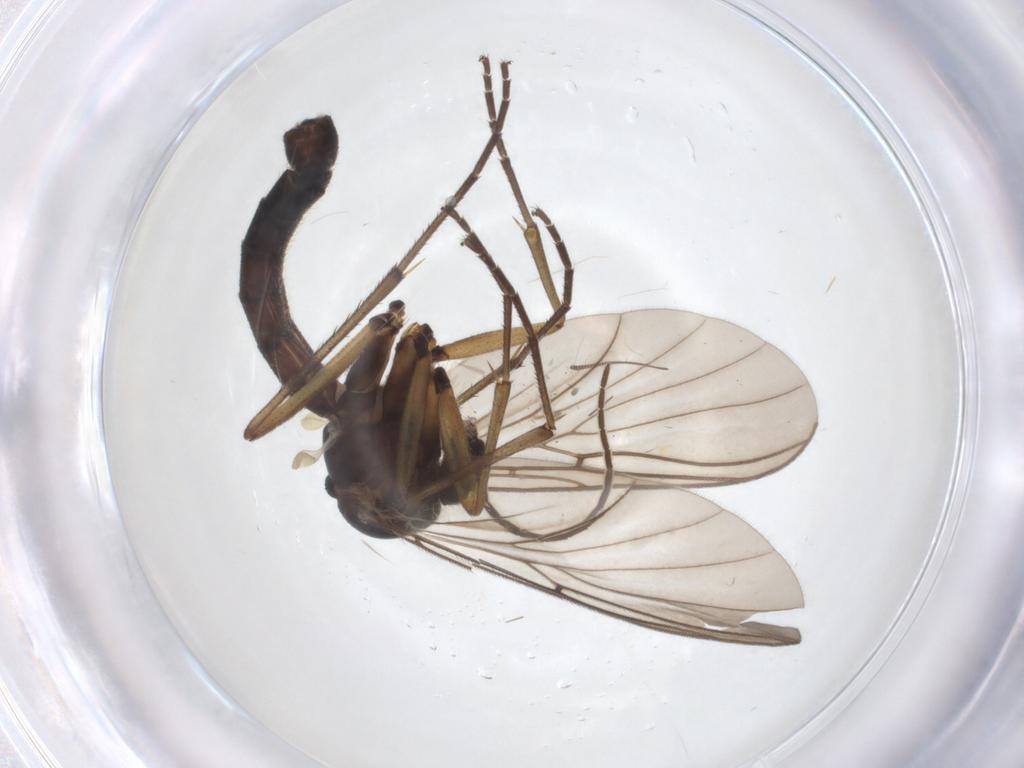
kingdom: Animalia
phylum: Arthropoda
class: Insecta
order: Diptera
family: Mycetophilidae
